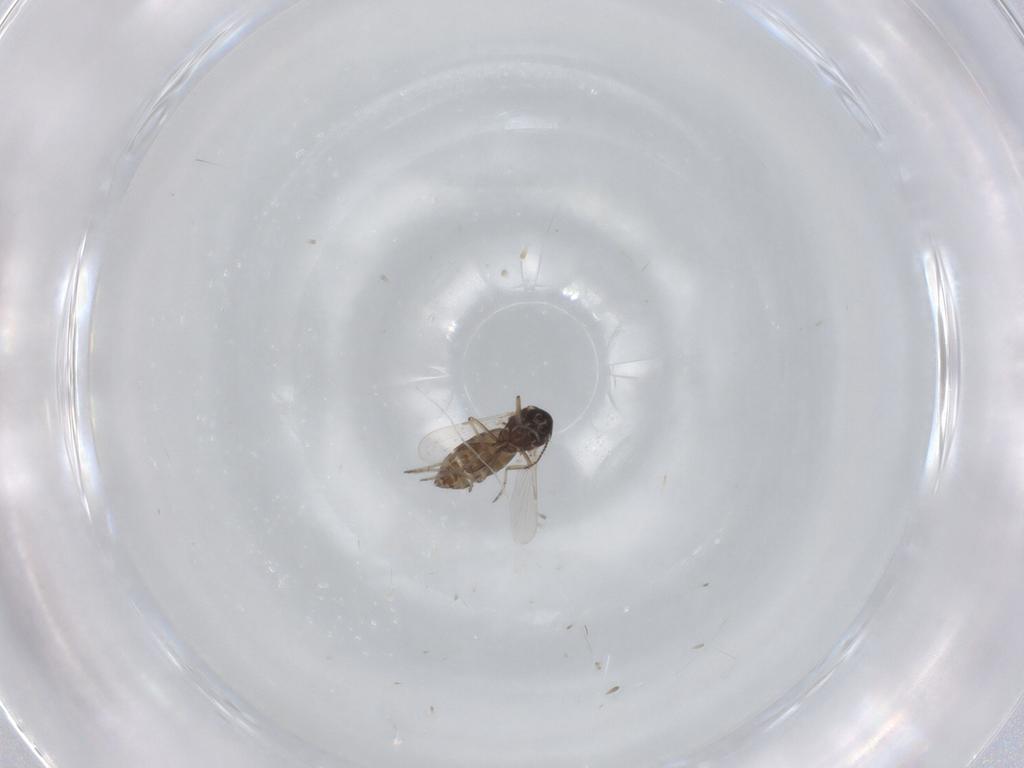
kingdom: Animalia
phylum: Arthropoda
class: Insecta
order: Diptera
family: Ceratopogonidae
